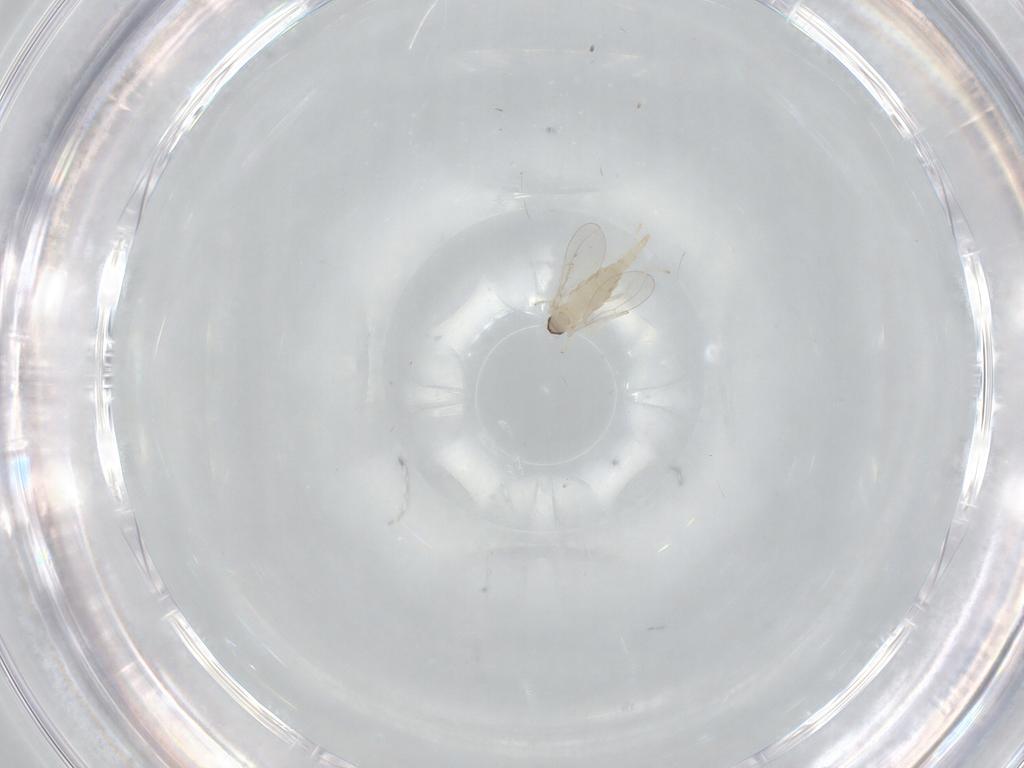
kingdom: Animalia
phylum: Arthropoda
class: Insecta
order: Diptera
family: Cecidomyiidae
